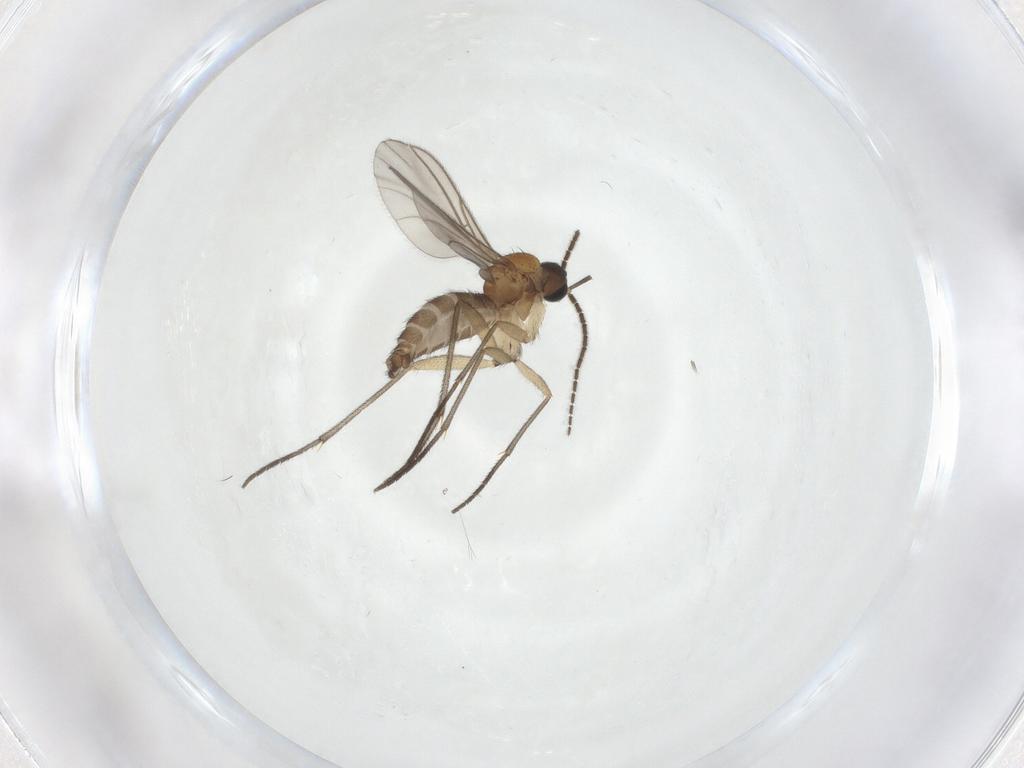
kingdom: Animalia
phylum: Arthropoda
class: Insecta
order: Diptera
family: Sciaridae
